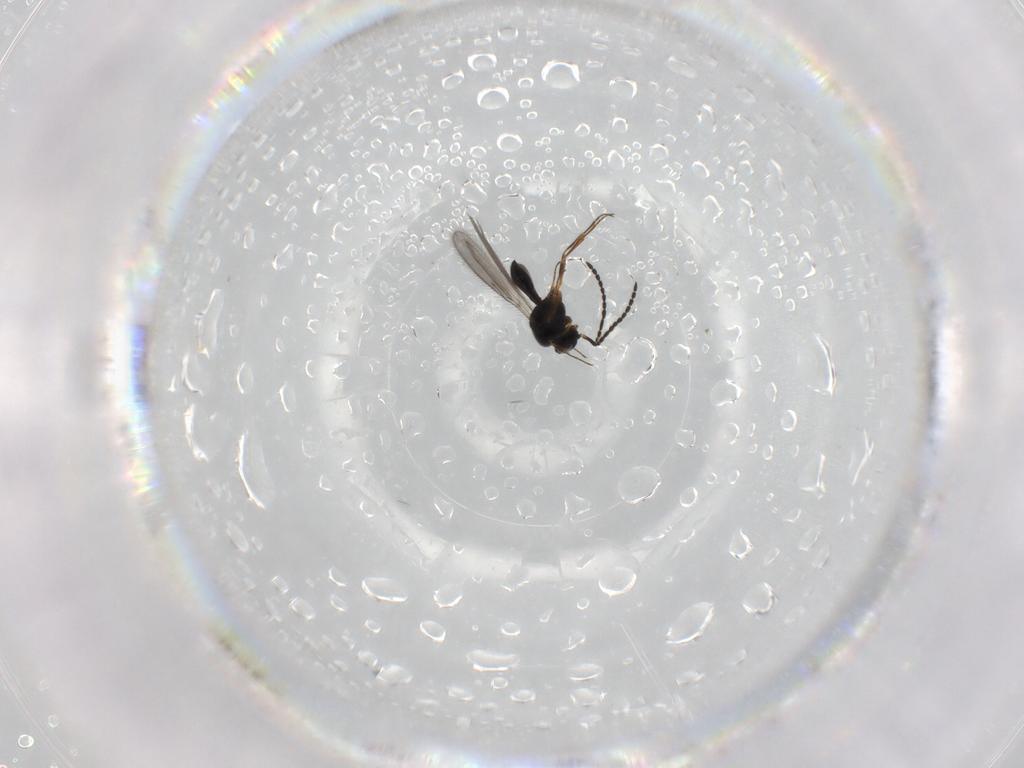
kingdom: Animalia
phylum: Arthropoda
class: Insecta
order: Hymenoptera
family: Scelionidae
